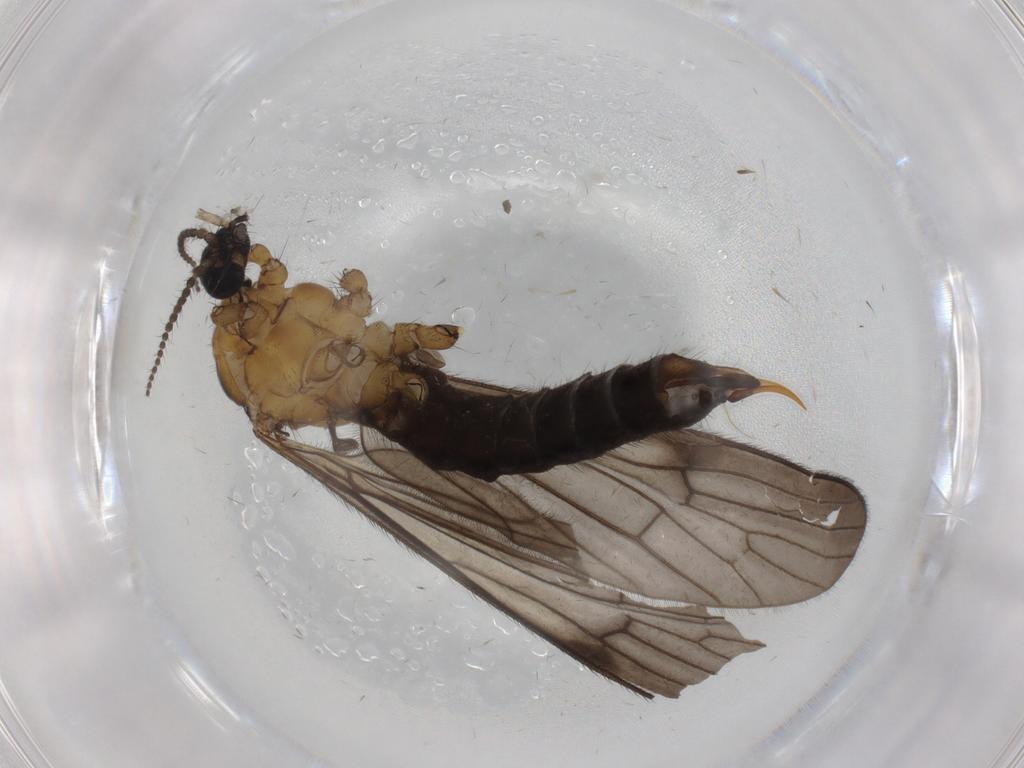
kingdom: Animalia
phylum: Arthropoda
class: Insecta
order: Diptera
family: Limoniidae
